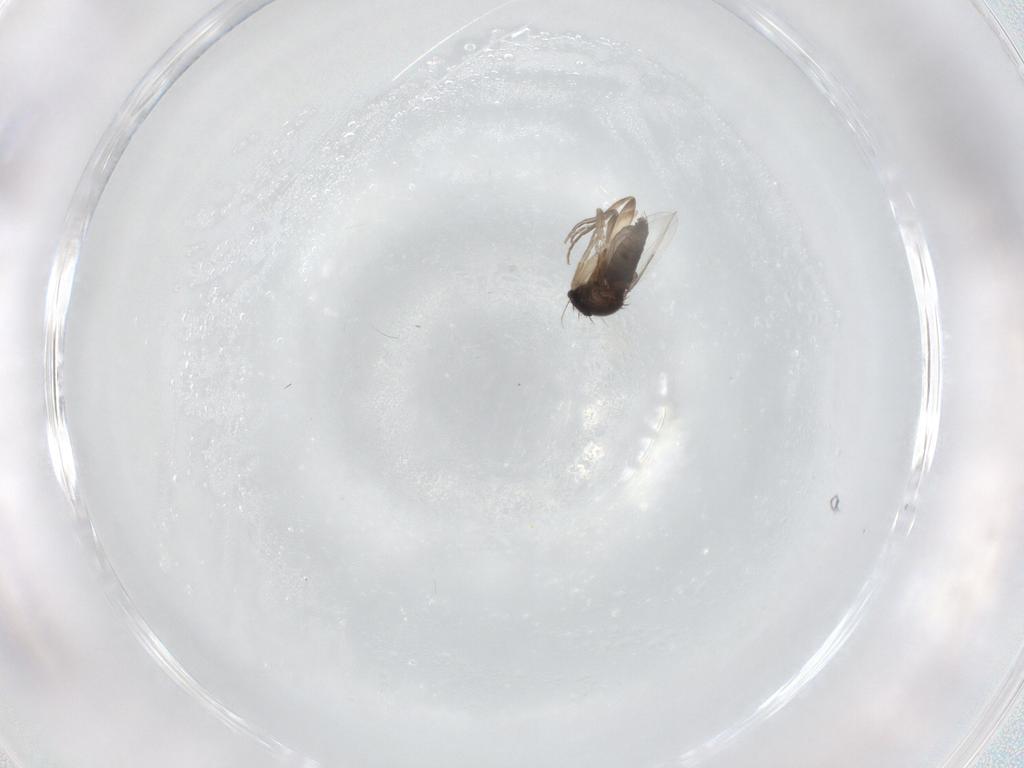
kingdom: Animalia
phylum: Arthropoda
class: Insecta
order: Diptera
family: Phoridae
